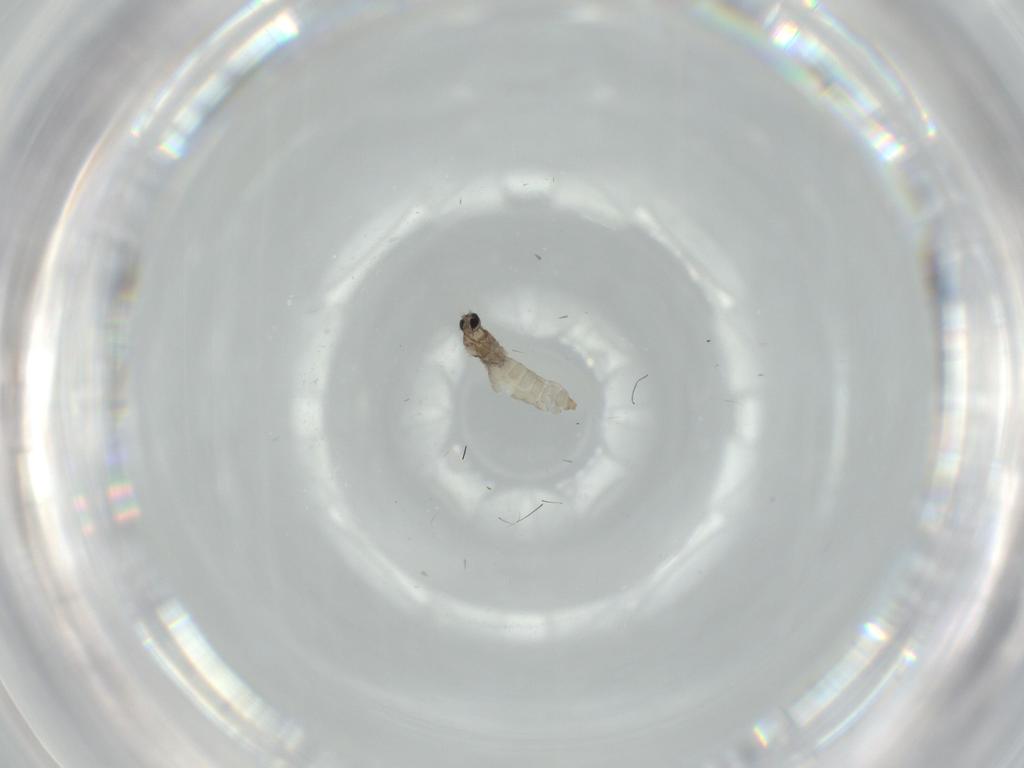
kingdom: Animalia
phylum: Arthropoda
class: Insecta
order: Diptera
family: Cecidomyiidae
